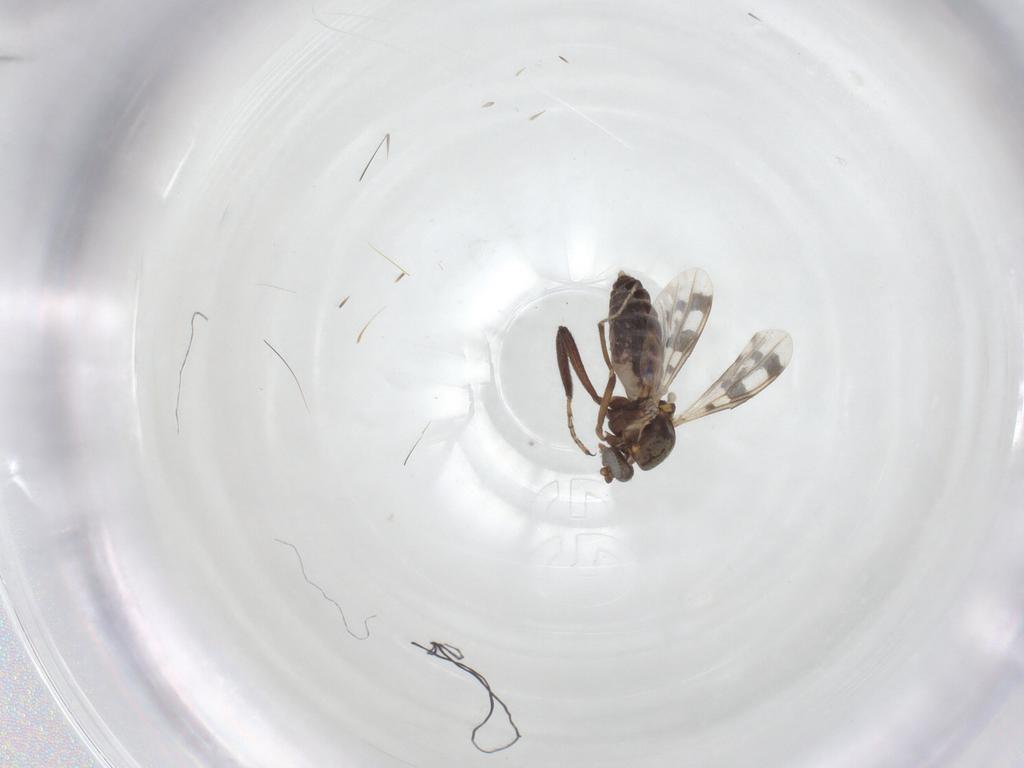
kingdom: Animalia
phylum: Arthropoda
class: Insecta
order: Diptera
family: Ceratopogonidae
